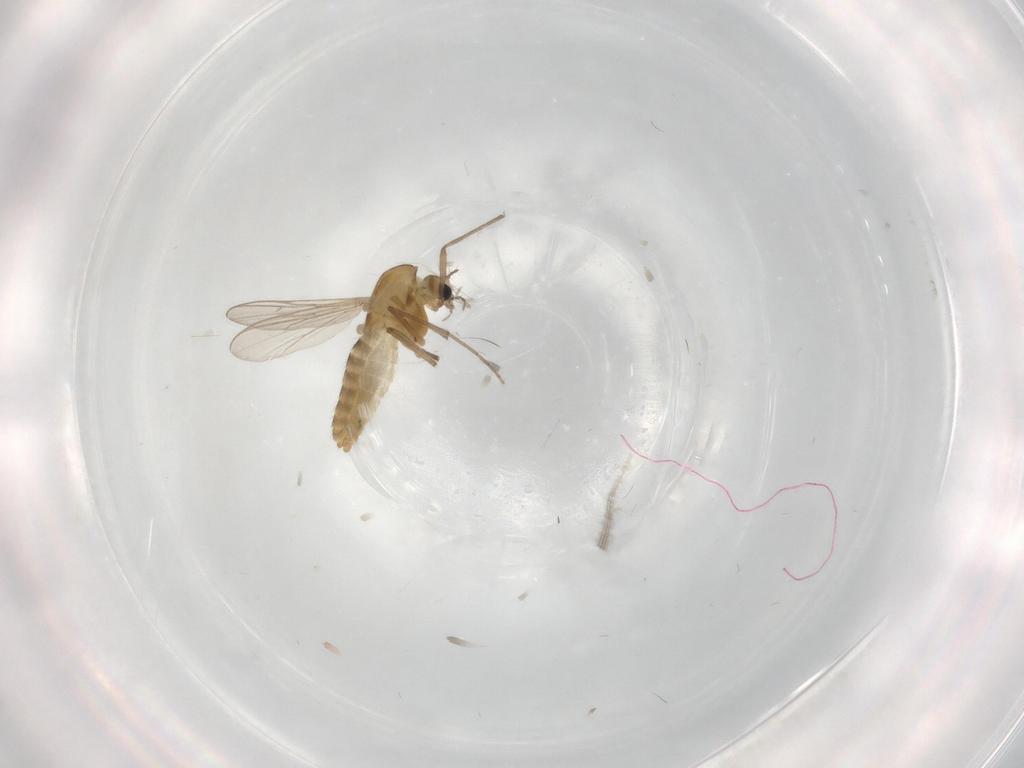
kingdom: Animalia
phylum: Arthropoda
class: Insecta
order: Diptera
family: Chironomidae
